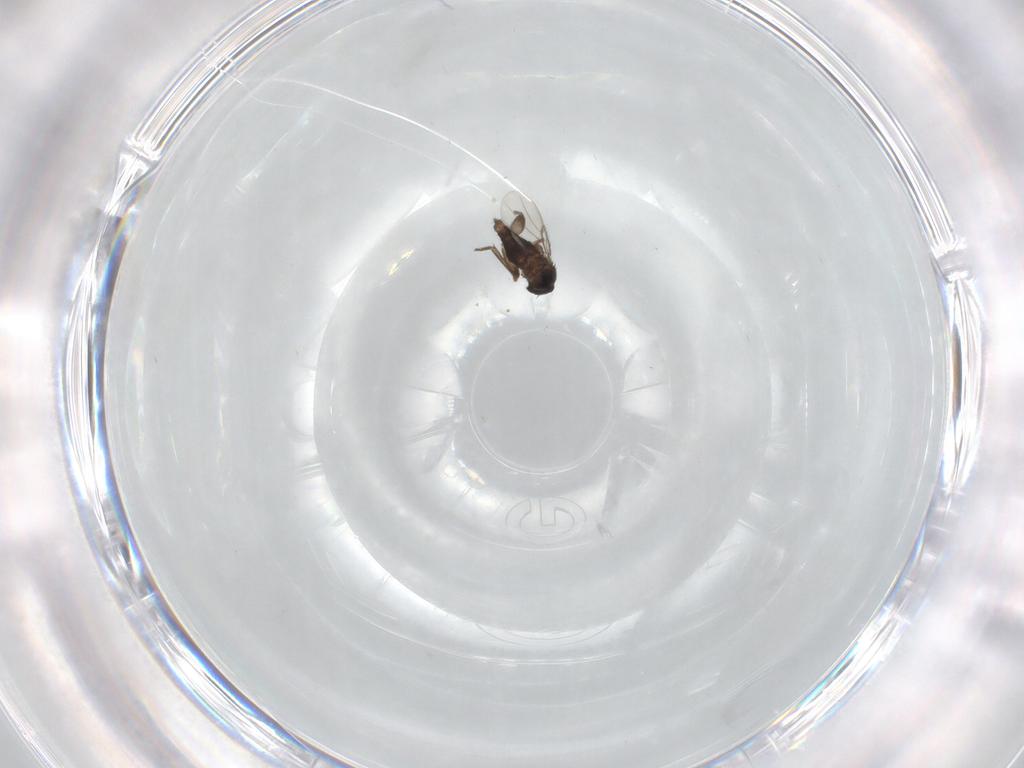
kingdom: Animalia
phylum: Arthropoda
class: Insecta
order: Diptera
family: Phoridae
